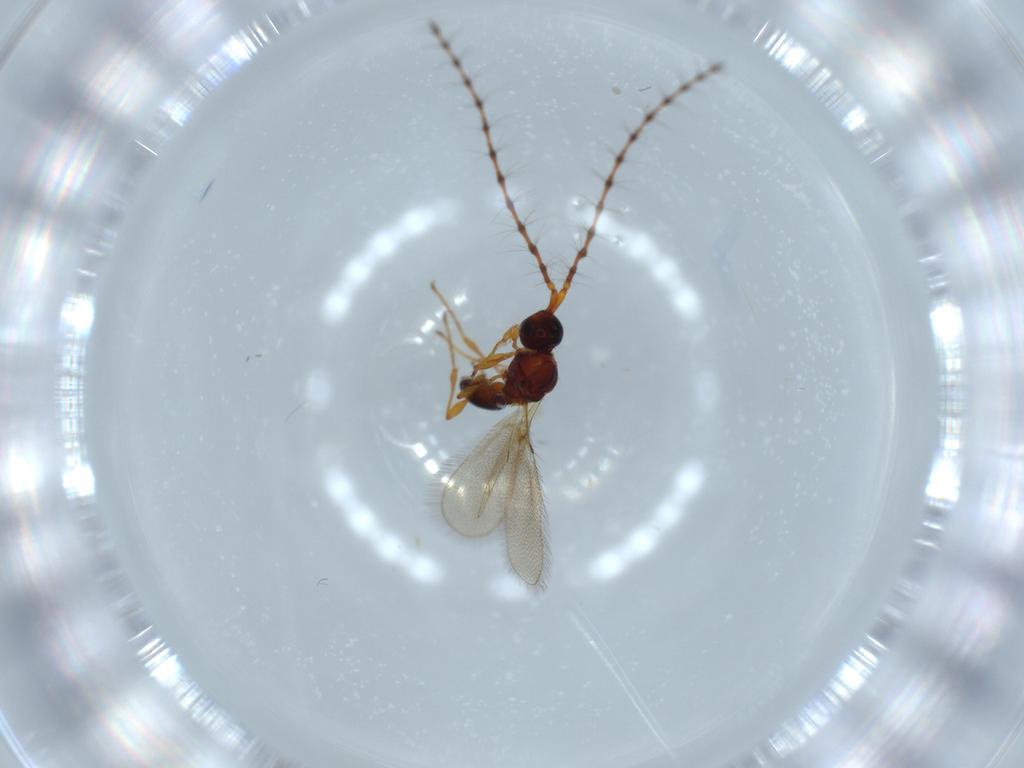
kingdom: Animalia
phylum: Arthropoda
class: Insecta
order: Hymenoptera
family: Diapriidae
